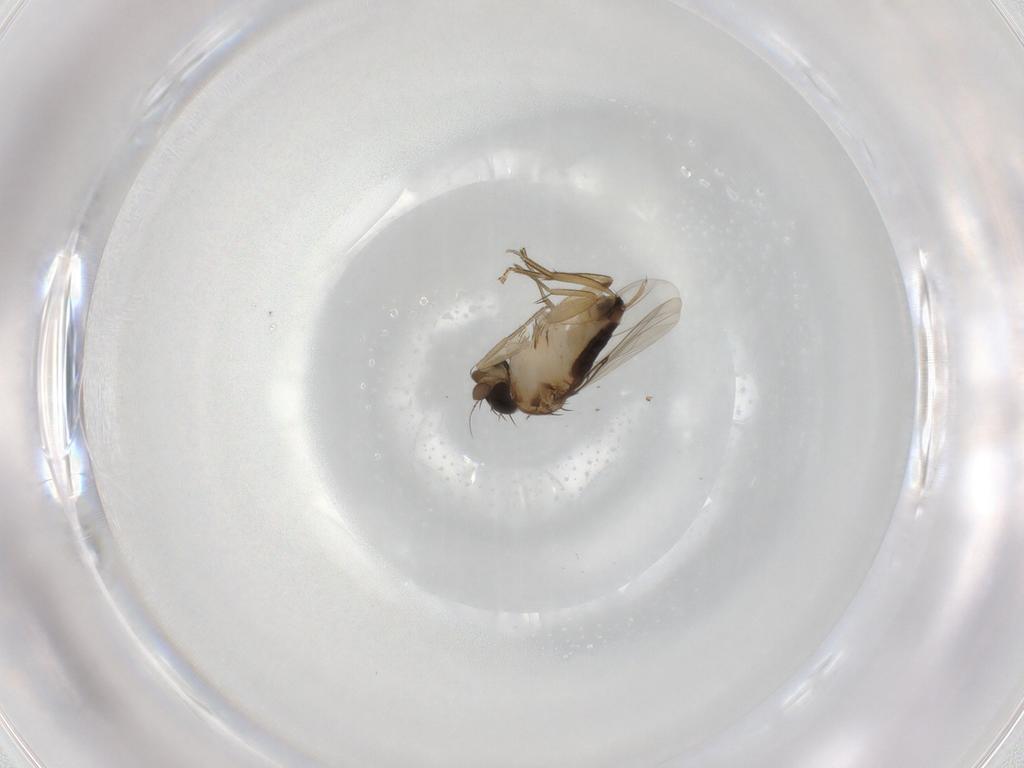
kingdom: Animalia
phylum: Arthropoda
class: Insecta
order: Diptera
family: Phoridae
